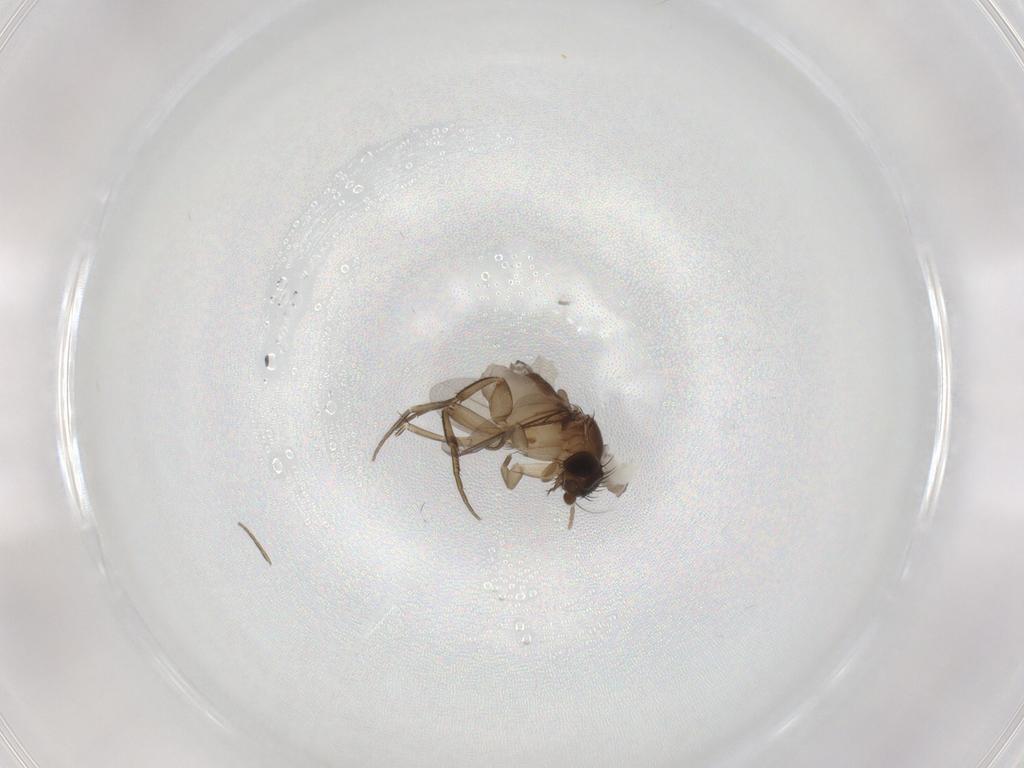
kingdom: Animalia
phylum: Arthropoda
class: Insecta
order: Diptera
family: Phoridae
